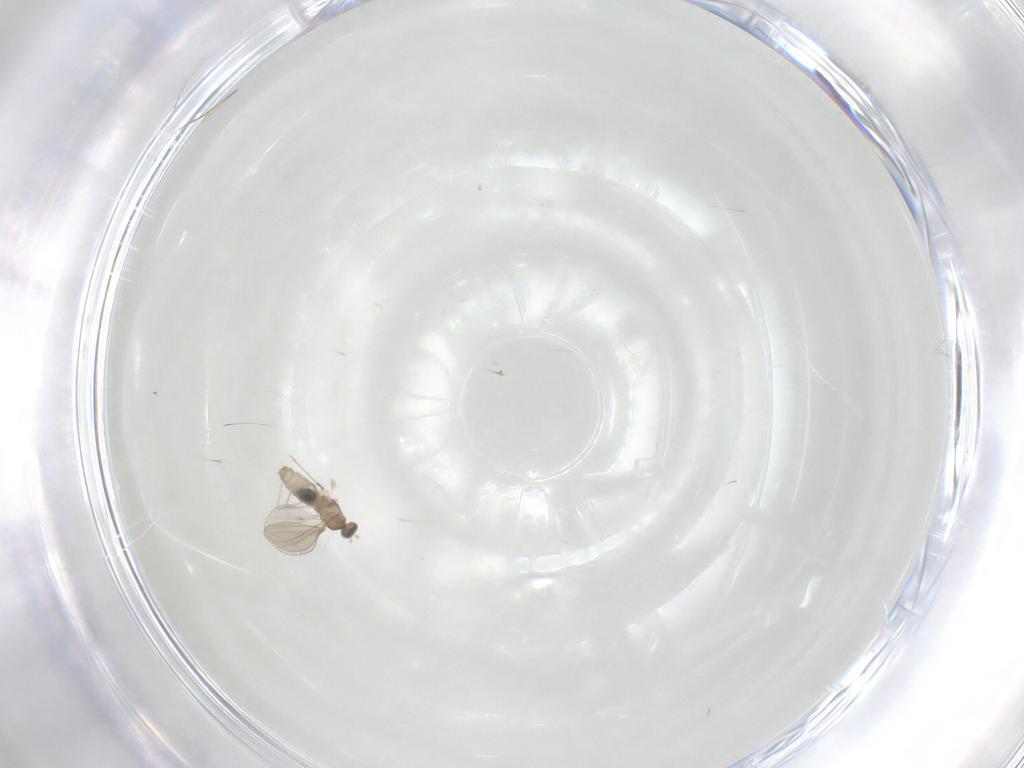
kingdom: Animalia
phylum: Arthropoda
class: Insecta
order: Diptera
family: Cecidomyiidae
